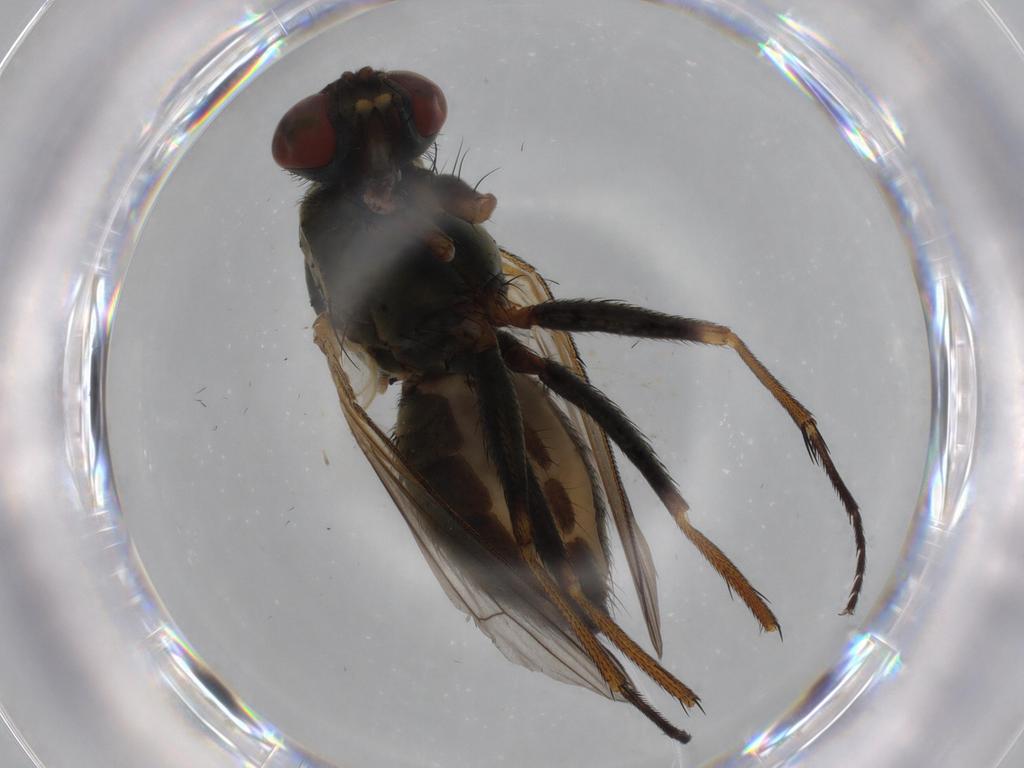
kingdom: Animalia
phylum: Arthropoda
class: Insecta
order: Diptera
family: Muscidae
